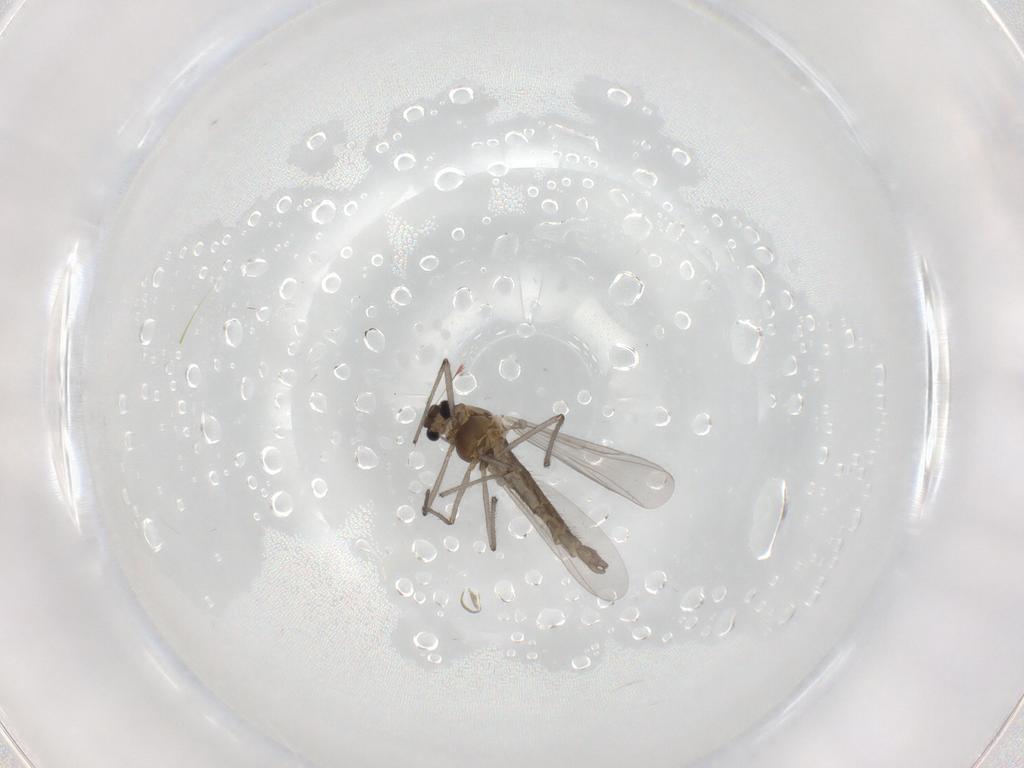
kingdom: Animalia
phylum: Arthropoda
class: Insecta
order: Diptera
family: Chironomidae
